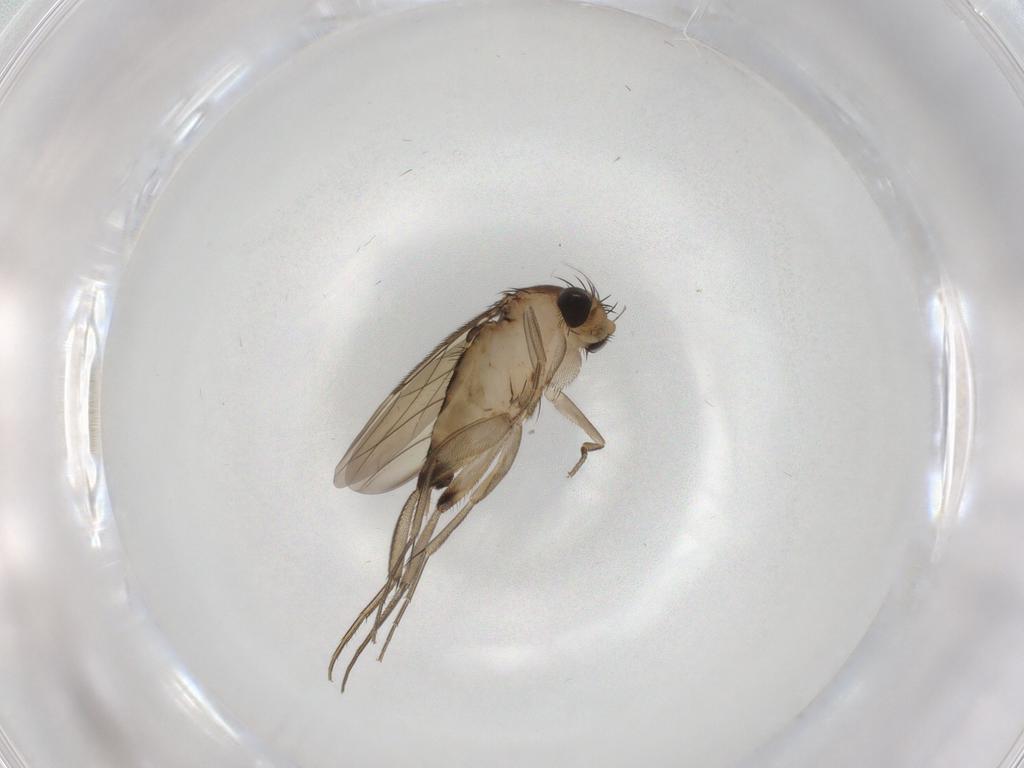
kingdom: Animalia
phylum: Arthropoda
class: Insecta
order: Diptera
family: Phoridae
